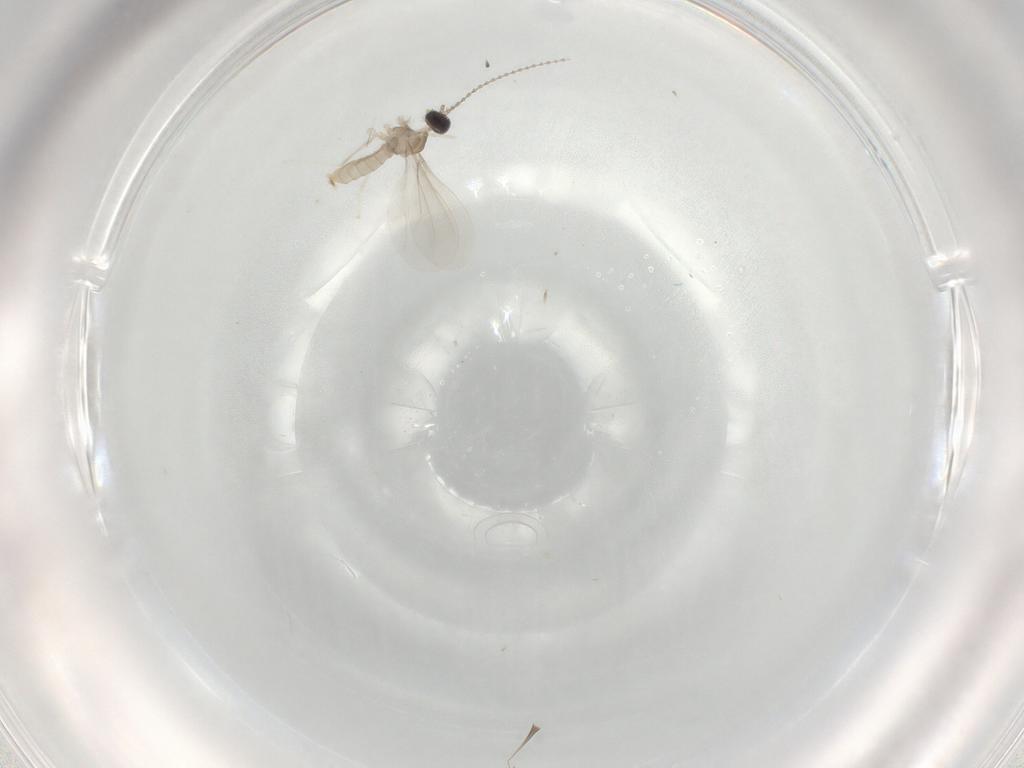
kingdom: Animalia
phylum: Arthropoda
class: Insecta
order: Diptera
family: Cecidomyiidae
